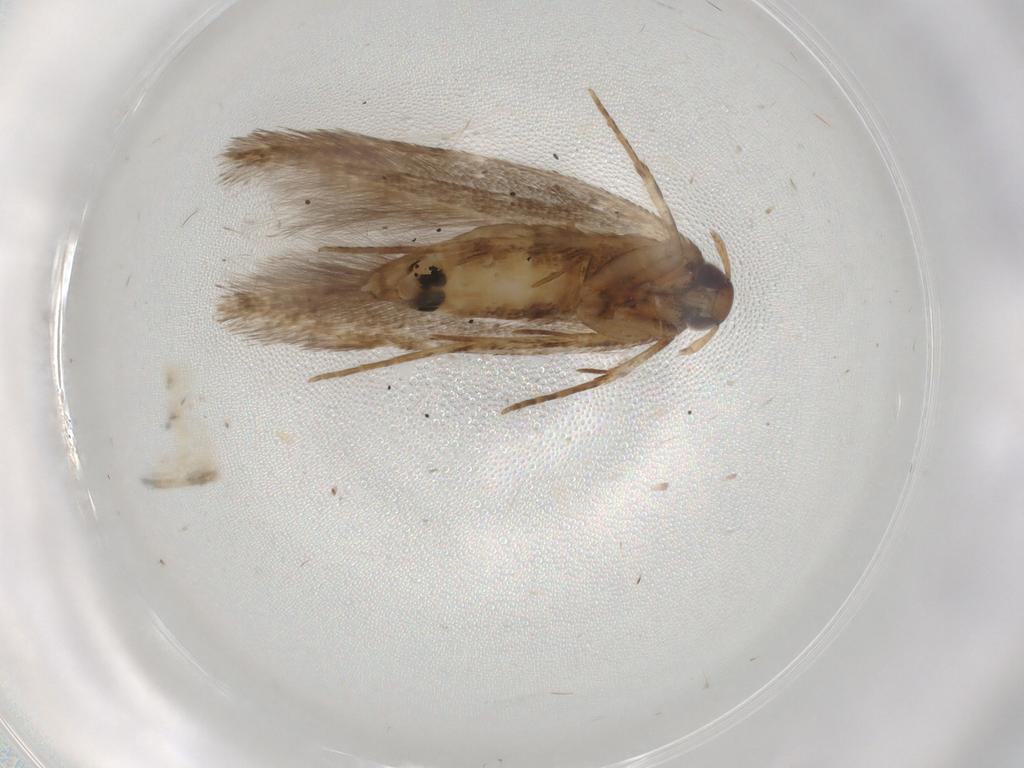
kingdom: Animalia
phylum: Arthropoda
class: Insecta
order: Lepidoptera
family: Cosmopterigidae
